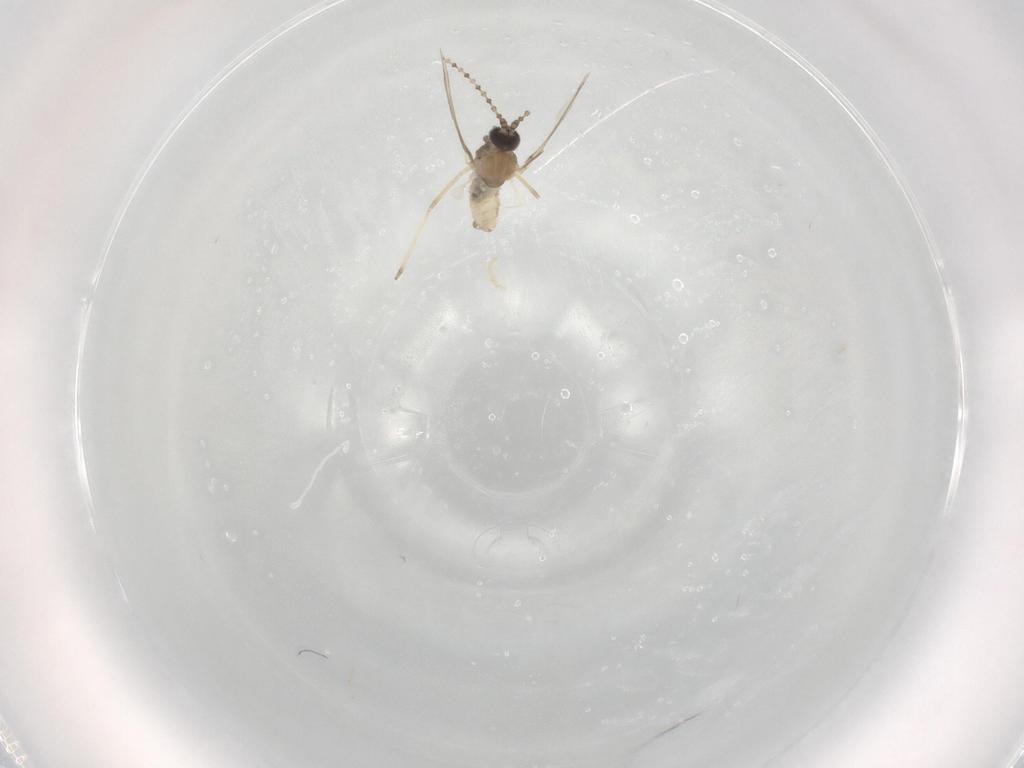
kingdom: Animalia
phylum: Arthropoda
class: Insecta
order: Diptera
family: Cecidomyiidae
